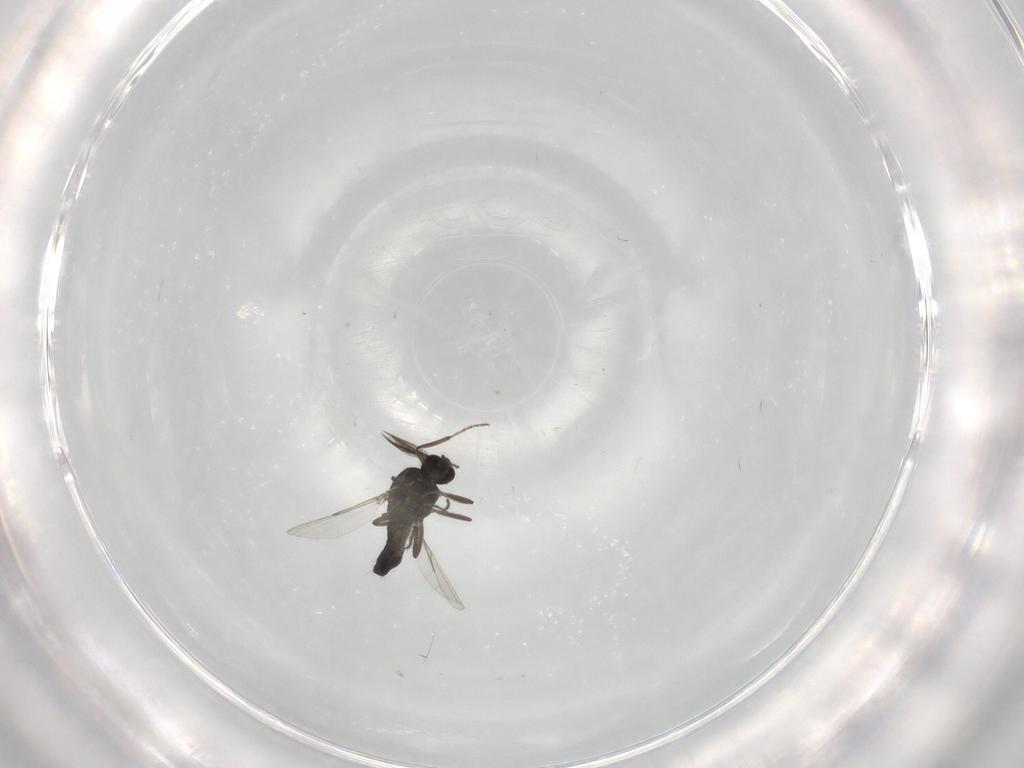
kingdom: Animalia
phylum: Arthropoda
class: Insecta
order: Diptera
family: Ceratopogonidae
